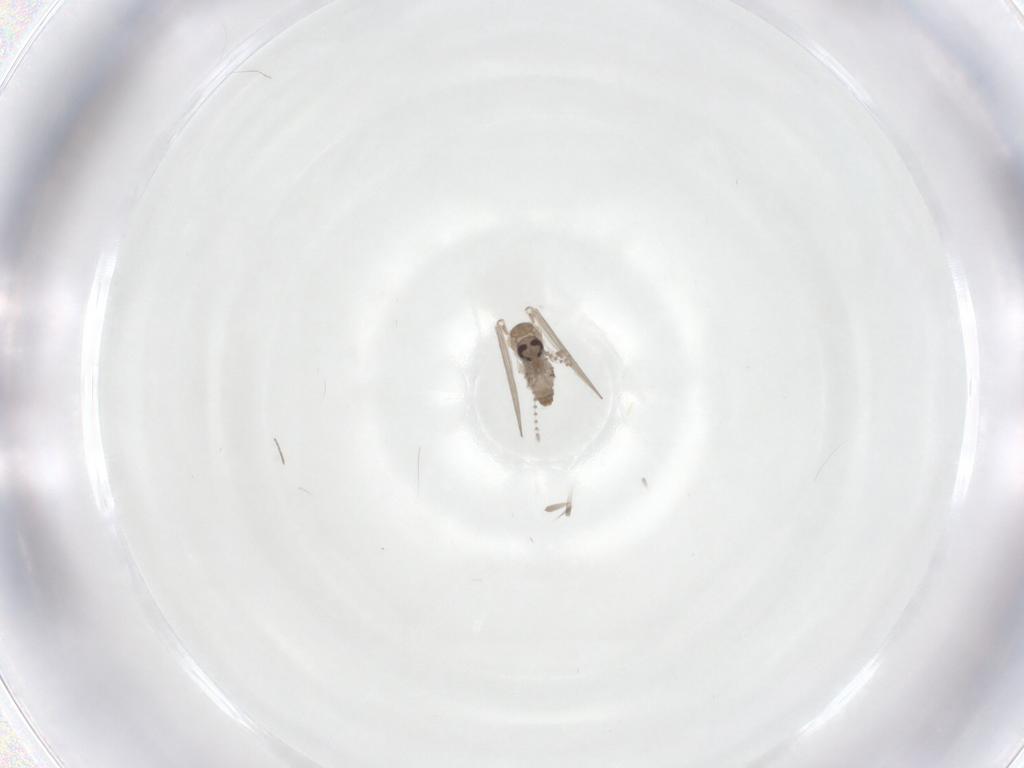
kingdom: Animalia
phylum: Arthropoda
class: Insecta
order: Diptera
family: Psychodidae
